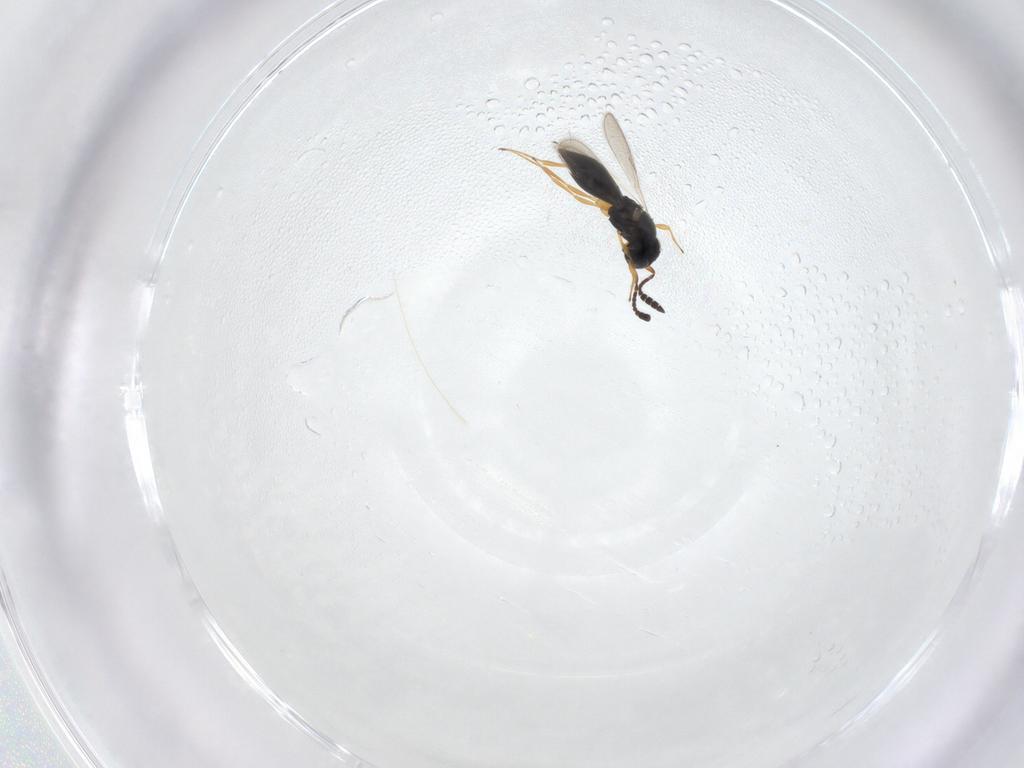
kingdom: Animalia
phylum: Arthropoda
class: Insecta
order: Hymenoptera
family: Scelionidae
